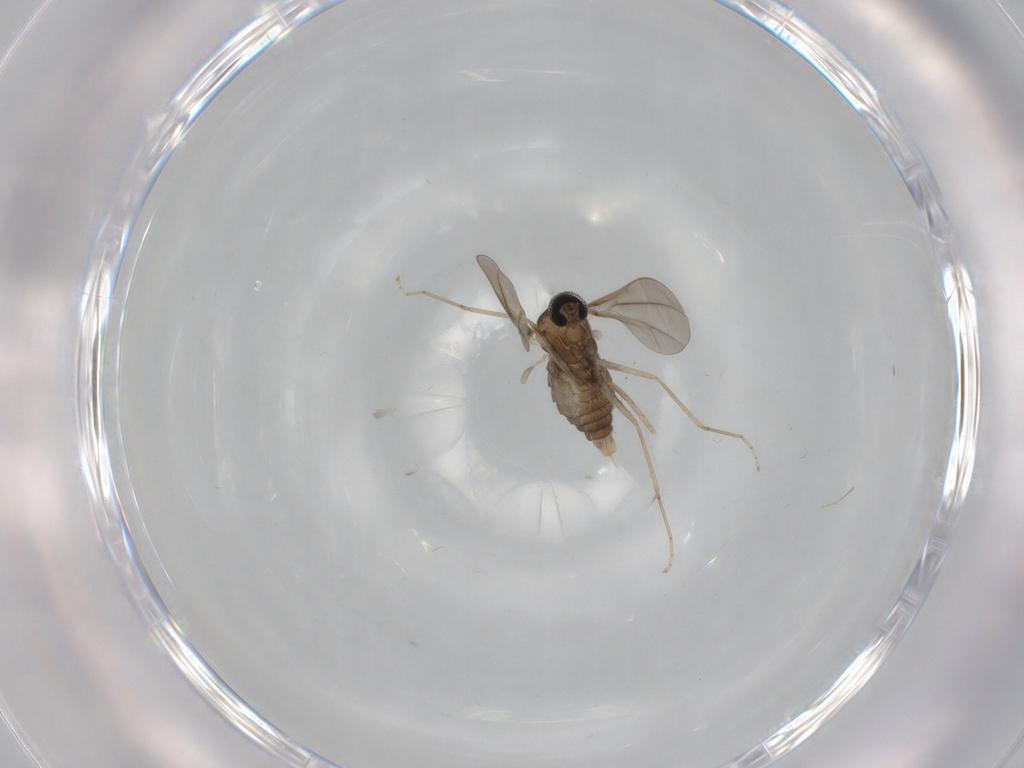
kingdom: Animalia
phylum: Arthropoda
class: Insecta
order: Diptera
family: Cecidomyiidae
